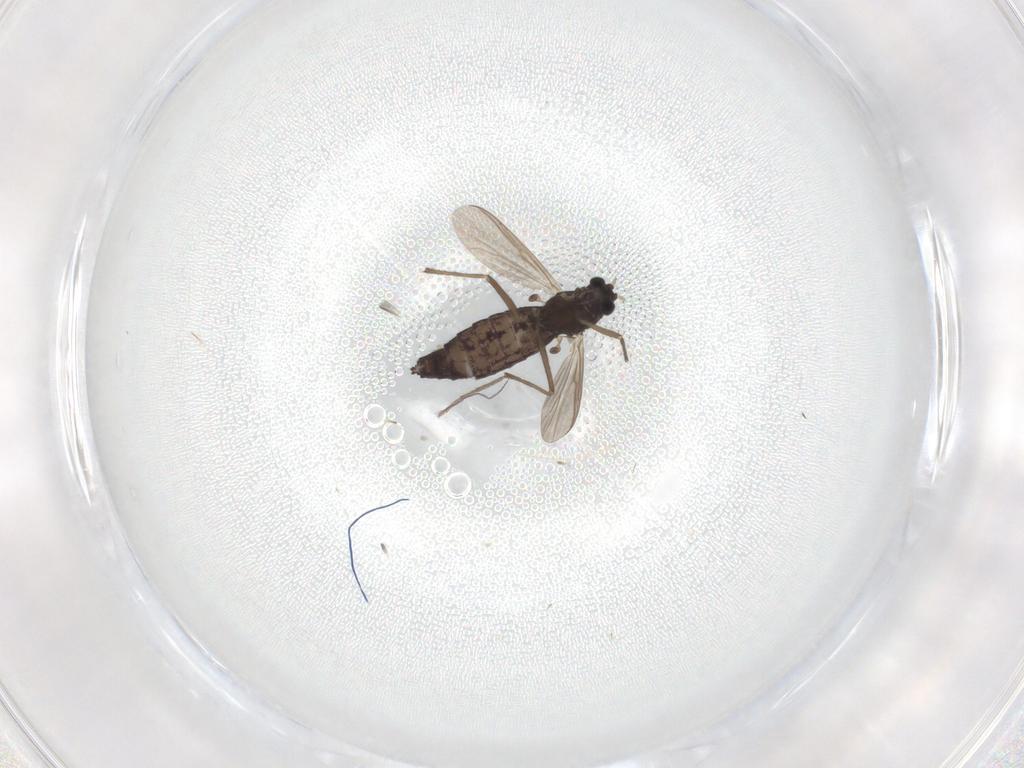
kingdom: Animalia
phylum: Arthropoda
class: Insecta
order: Diptera
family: Chironomidae
